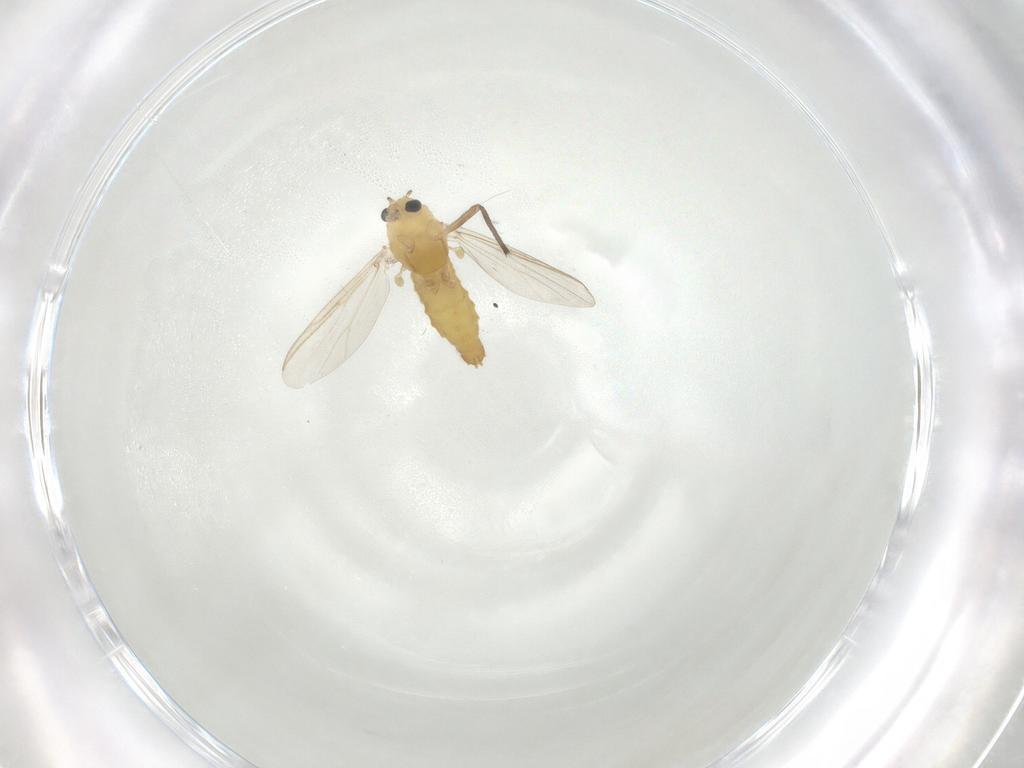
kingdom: Animalia
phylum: Arthropoda
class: Insecta
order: Diptera
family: Chironomidae
